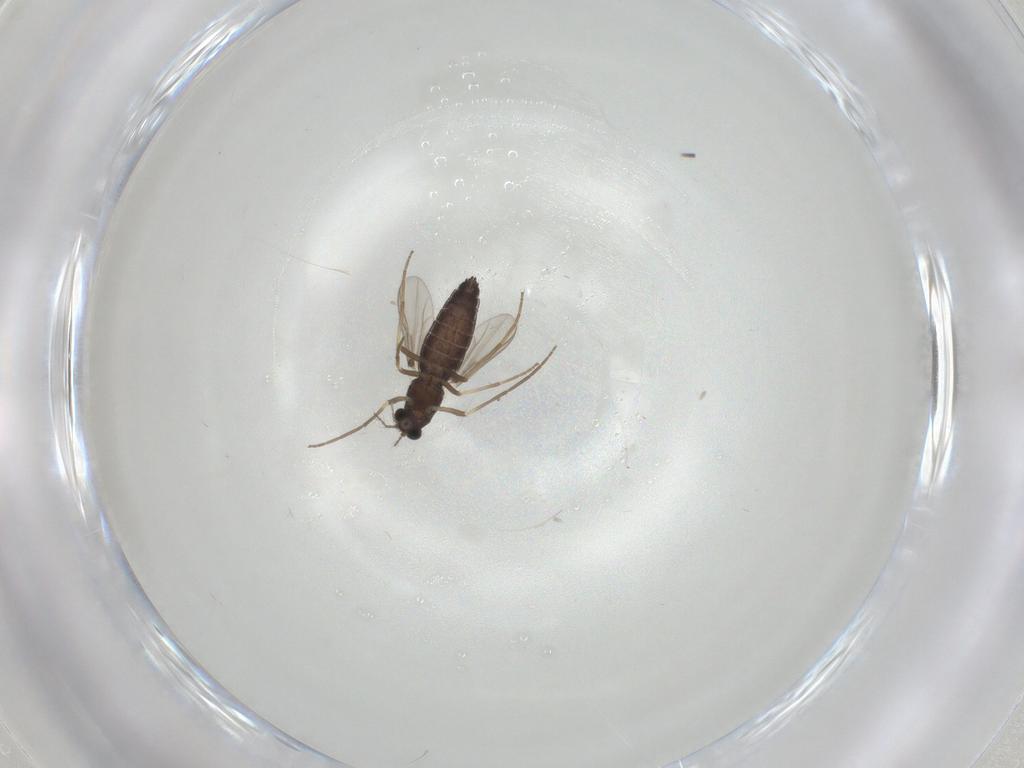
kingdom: Animalia
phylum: Arthropoda
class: Insecta
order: Diptera
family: Chironomidae
